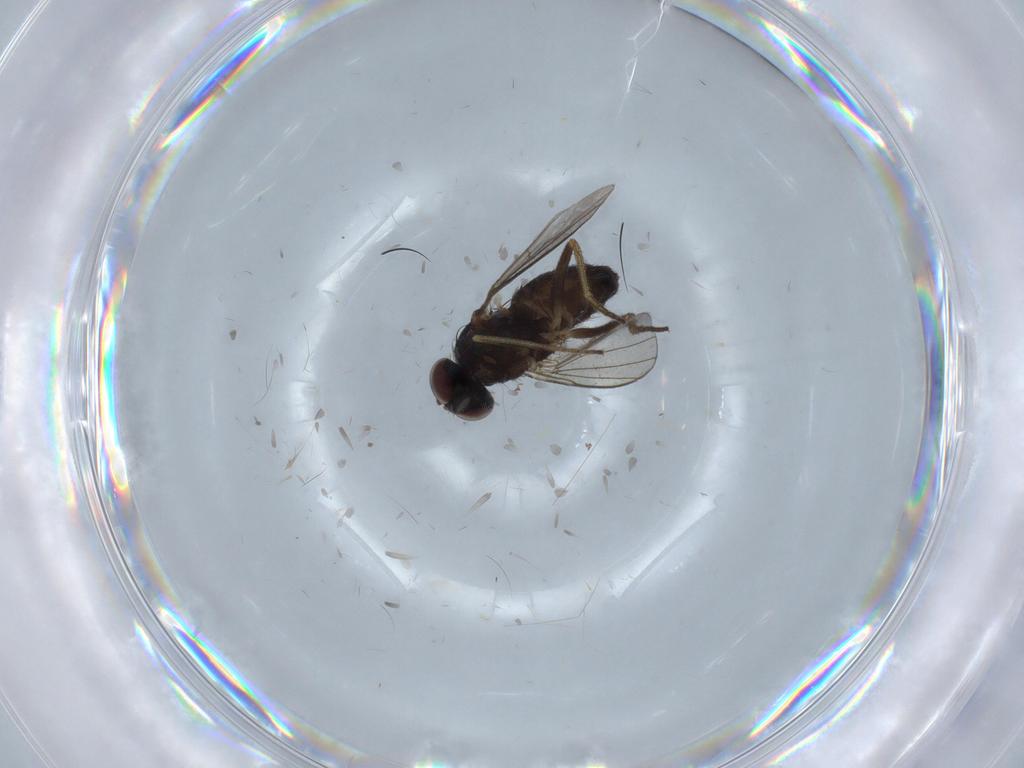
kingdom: Animalia
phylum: Arthropoda
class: Insecta
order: Diptera
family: Dolichopodidae
